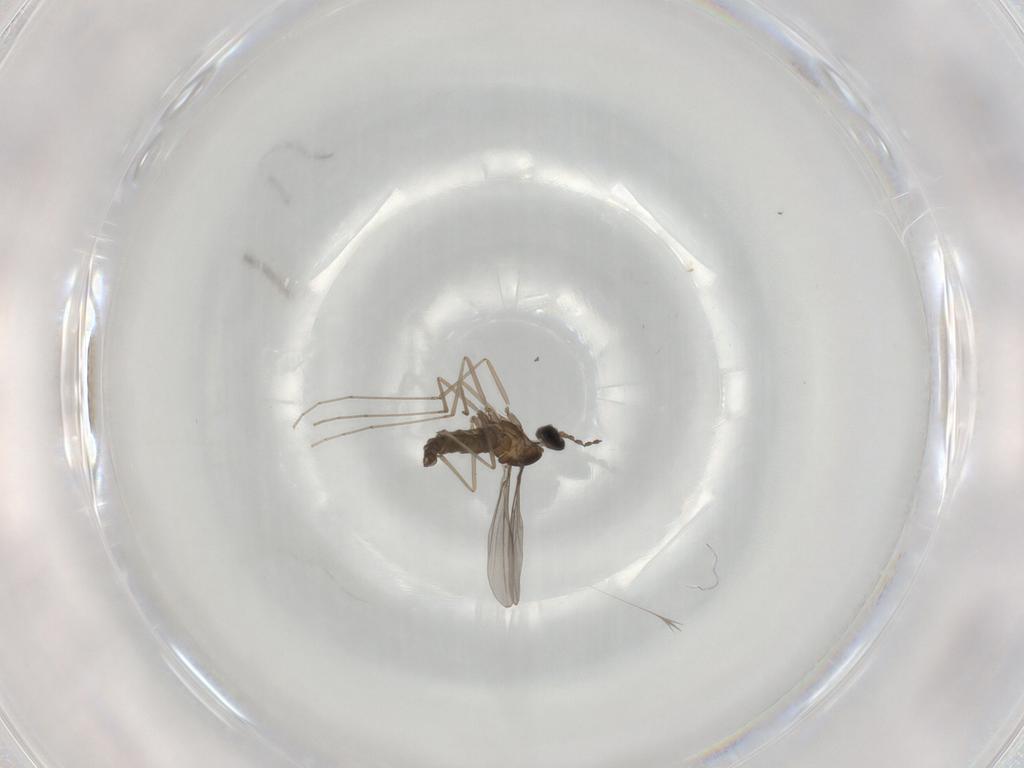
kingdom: Animalia
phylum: Arthropoda
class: Insecta
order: Diptera
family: Cecidomyiidae
